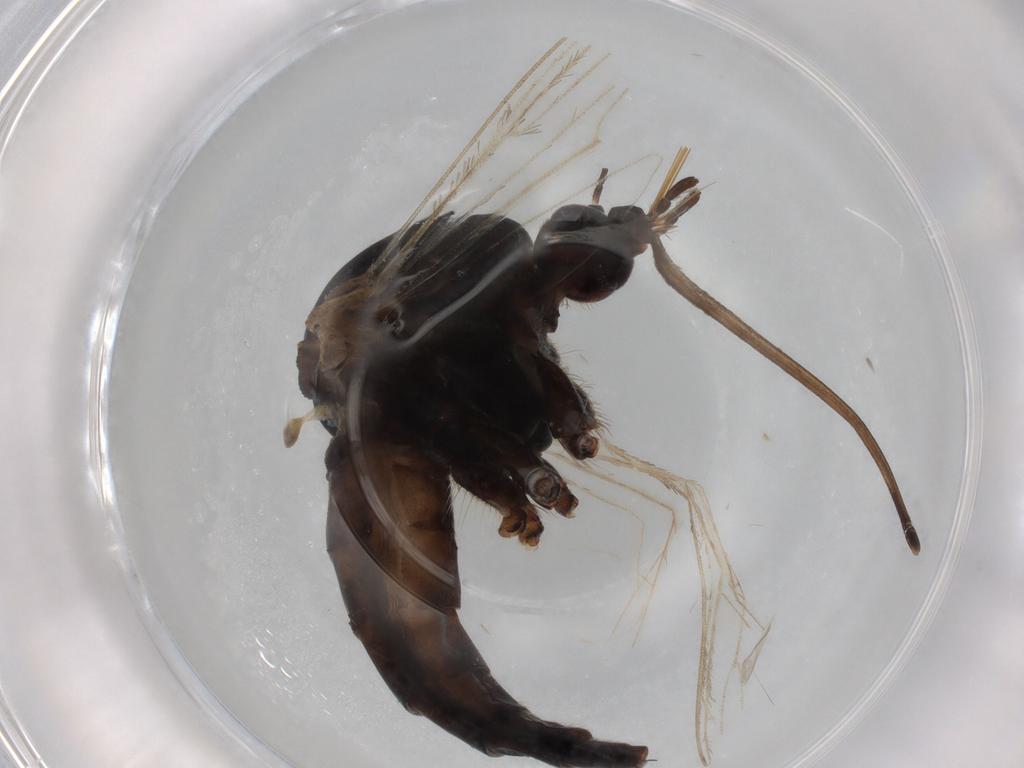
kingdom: Animalia
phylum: Arthropoda
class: Insecta
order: Diptera
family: Culicidae
